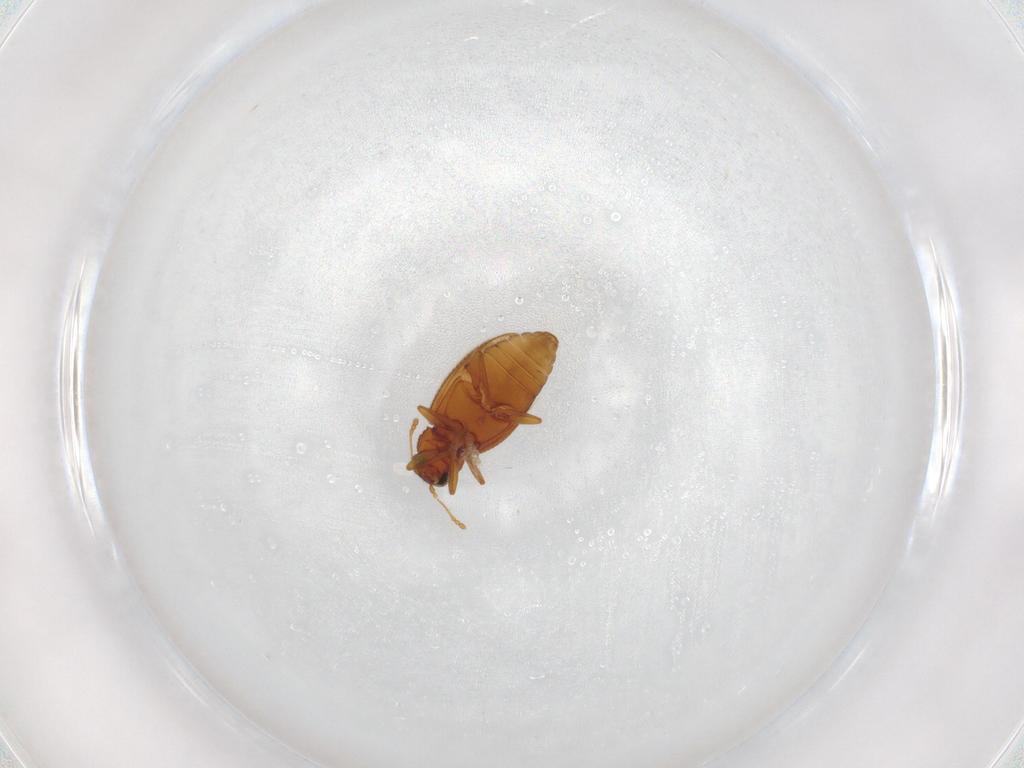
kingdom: Animalia
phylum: Arthropoda
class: Insecta
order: Coleoptera
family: Latridiidae
